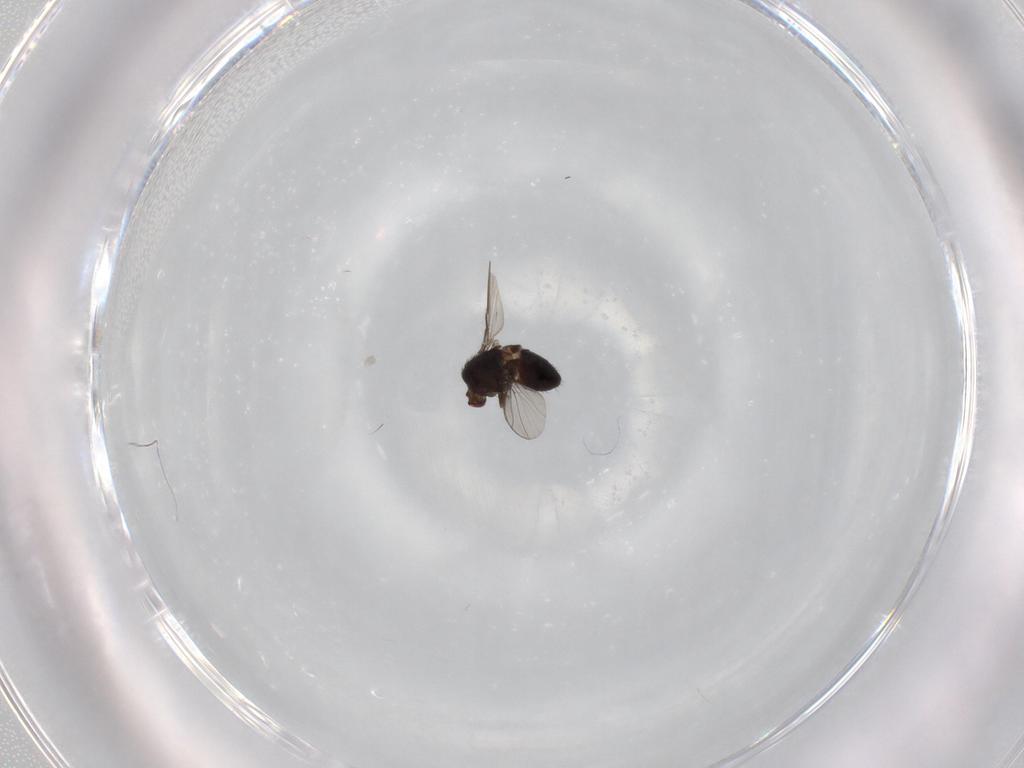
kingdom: Animalia
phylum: Arthropoda
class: Insecta
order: Diptera
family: Carnidae
